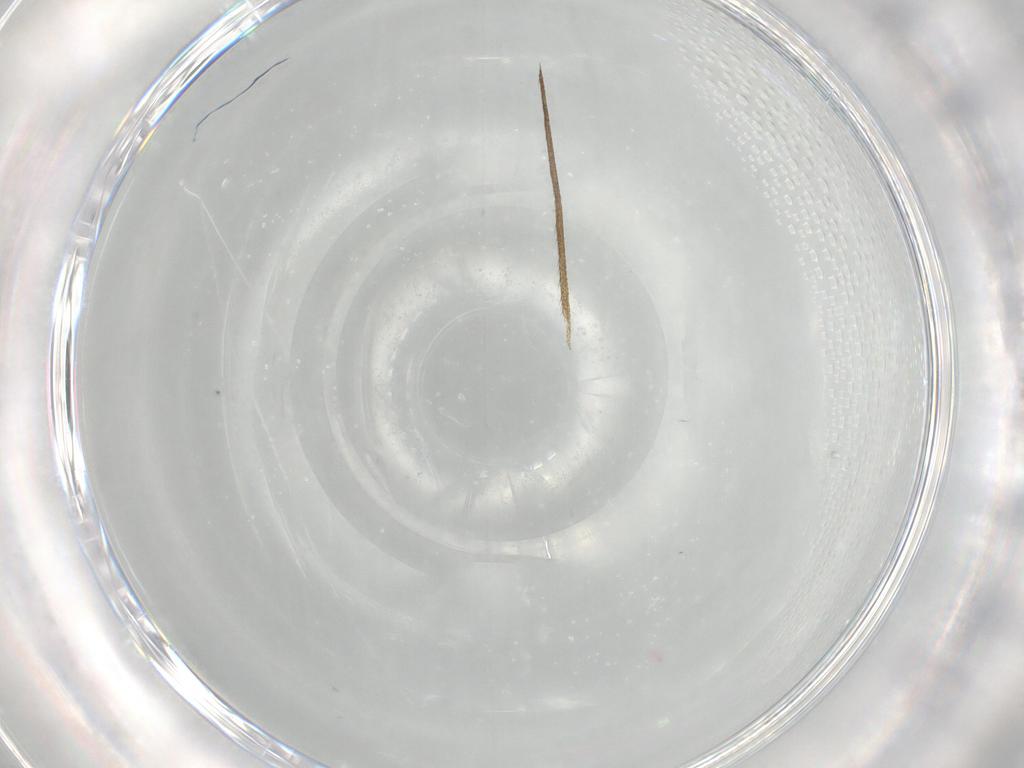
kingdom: Animalia
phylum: Arthropoda
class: Insecta
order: Diptera
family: Limoniidae
